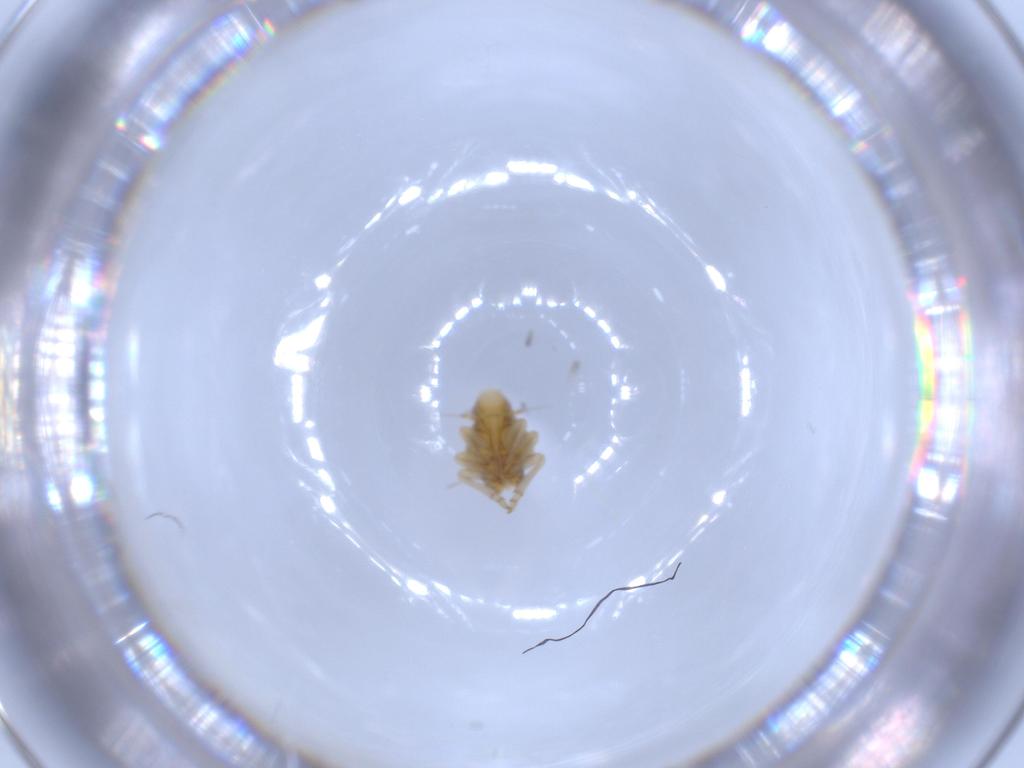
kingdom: Animalia
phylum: Arthropoda
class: Insecta
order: Hemiptera
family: Flatidae
